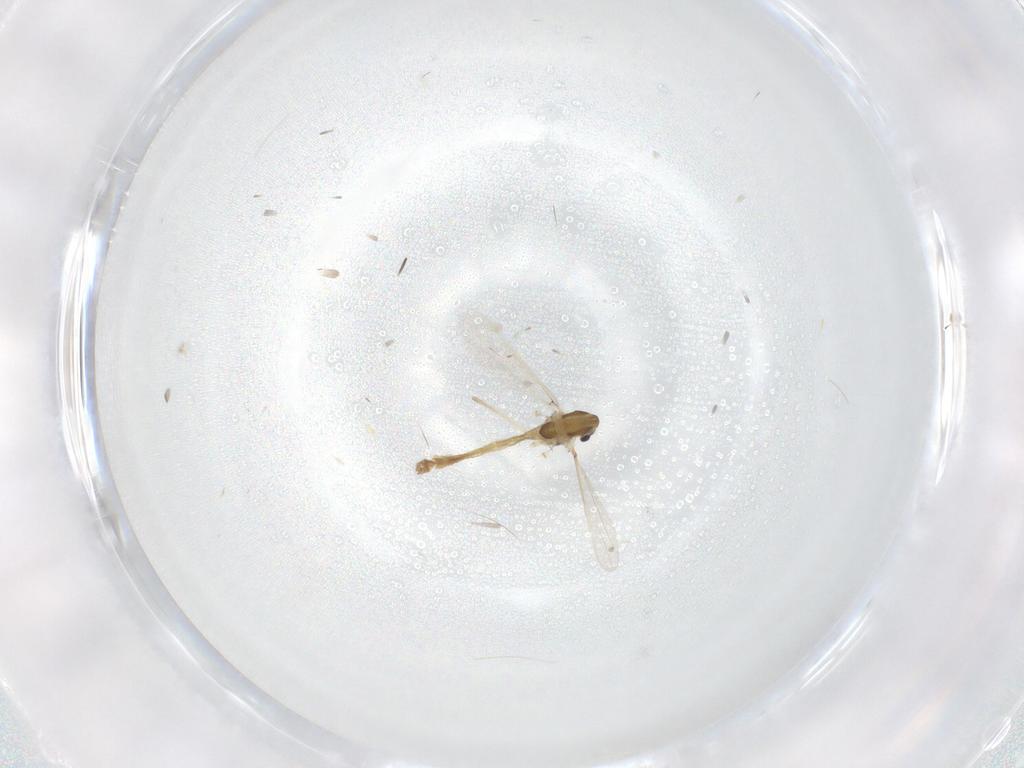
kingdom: Animalia
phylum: Arthropoda
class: Insecta
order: Diptera
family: Chironomidae
